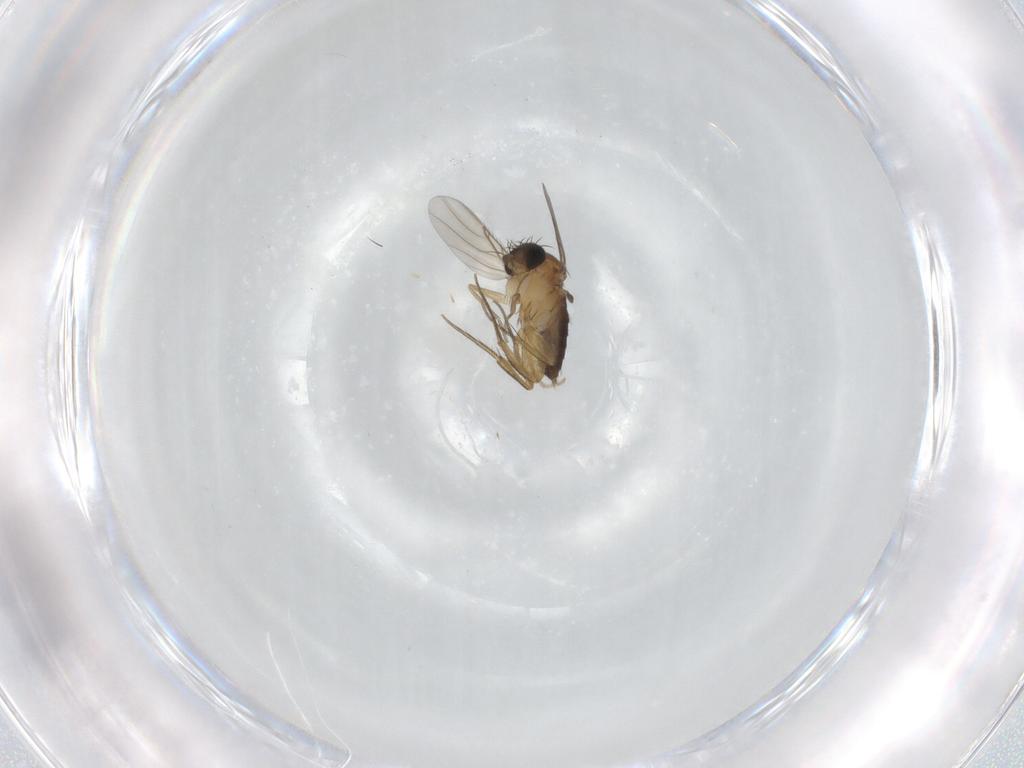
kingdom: Animalia
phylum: Arthropoda
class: Insecta
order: Diptera
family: Phoridae
